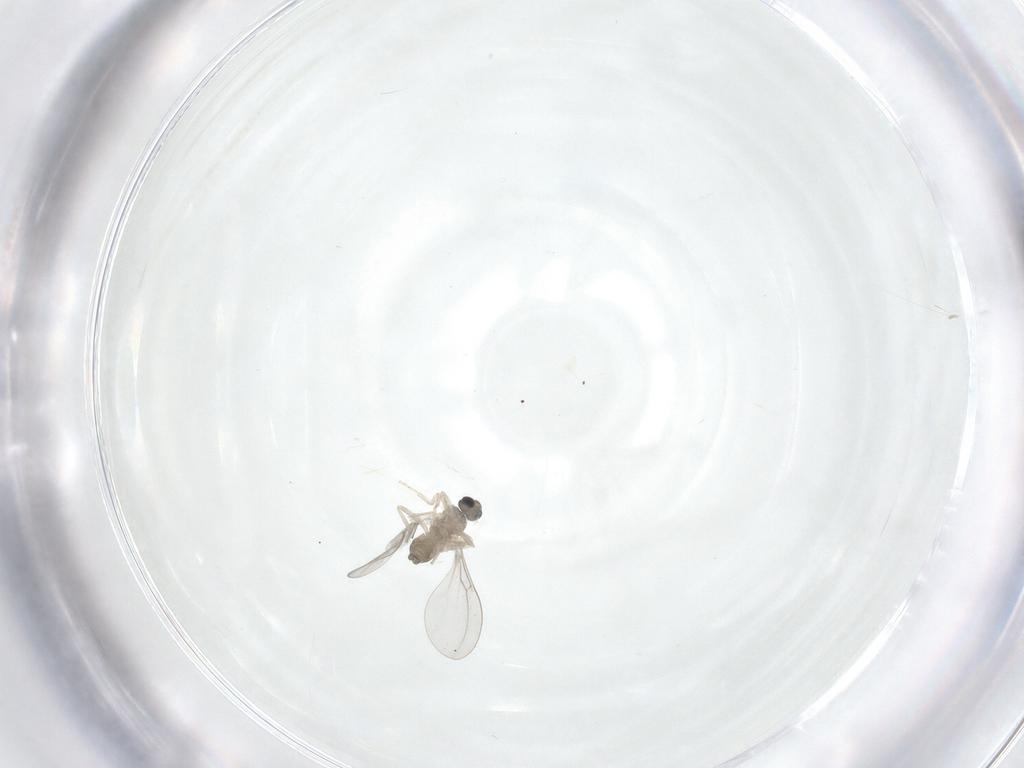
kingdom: Animalia
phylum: Arthropoda
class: Insecta
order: Diptera
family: Cecidomyiidae
